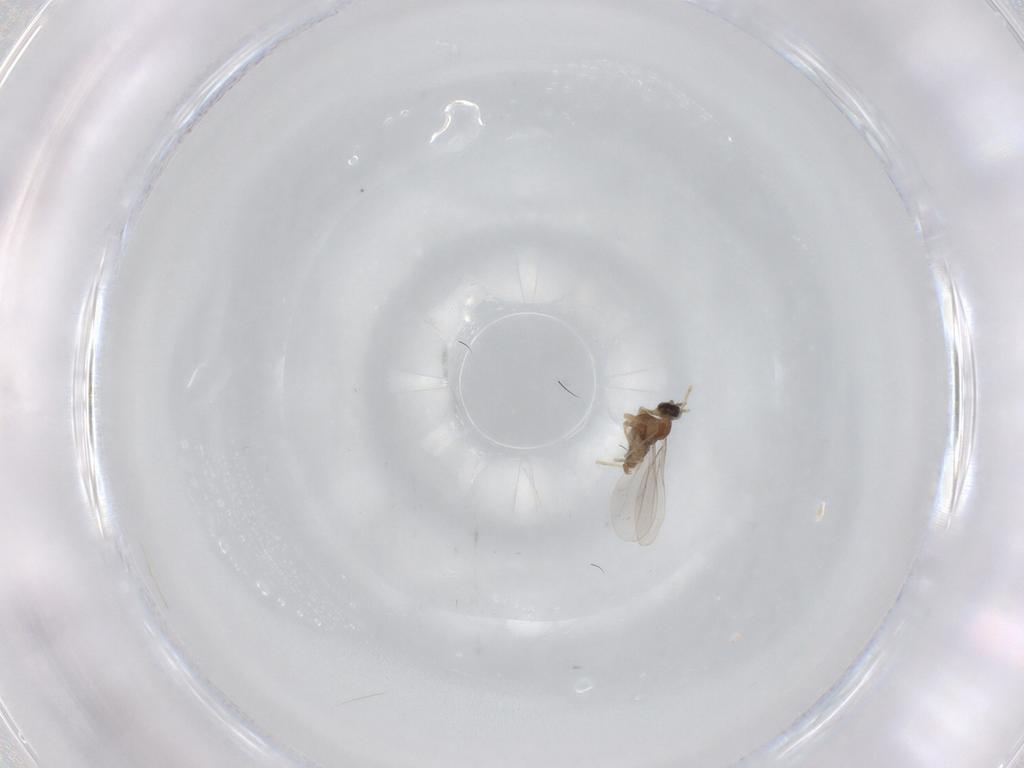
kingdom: Animalia
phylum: Arthropoda
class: Insecta
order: Diptera
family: Cecidomyiidae
